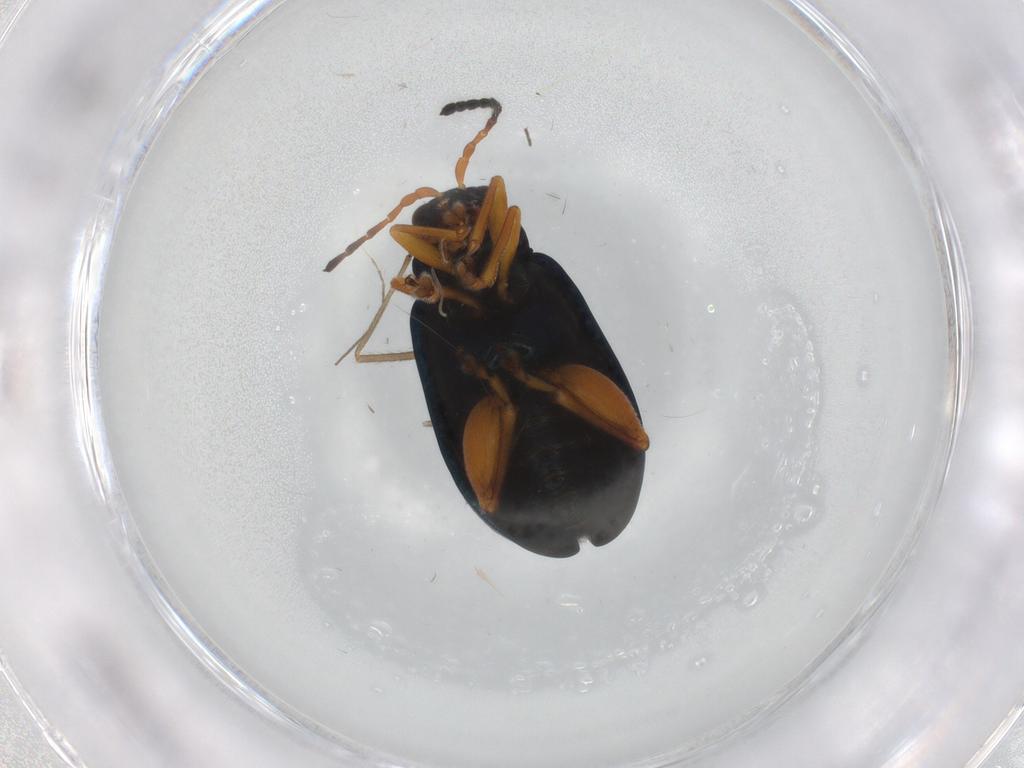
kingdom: Animalia
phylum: Arthropoda
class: Insecta
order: Coleoptera
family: Chrysomelidae
